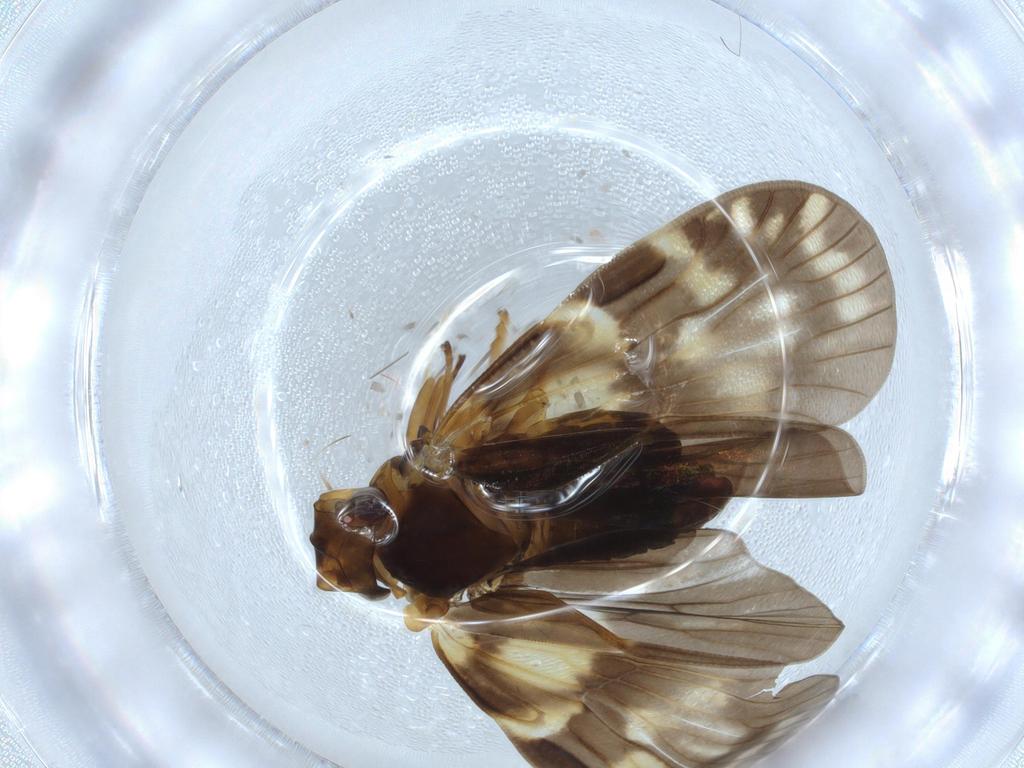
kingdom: Animalia
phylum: Arthropoda
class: Insecta
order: Hemiptera
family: Cixiidae
